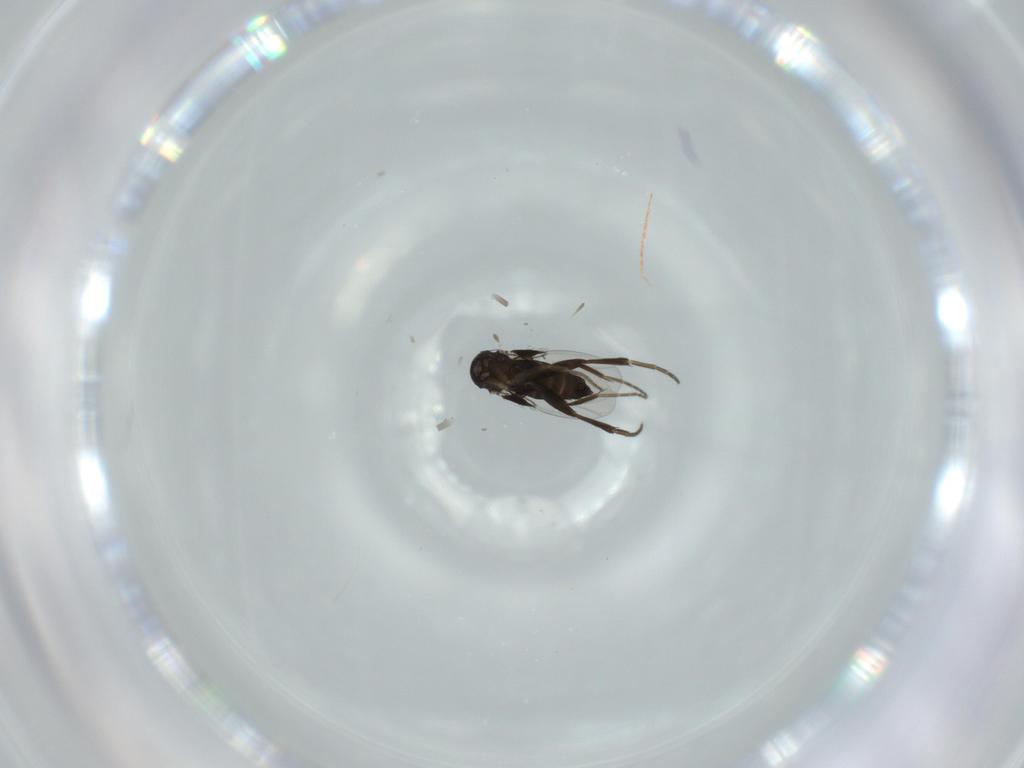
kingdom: Animalia
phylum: Arthropoda
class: Insecta
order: Diptera
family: Phoridae
